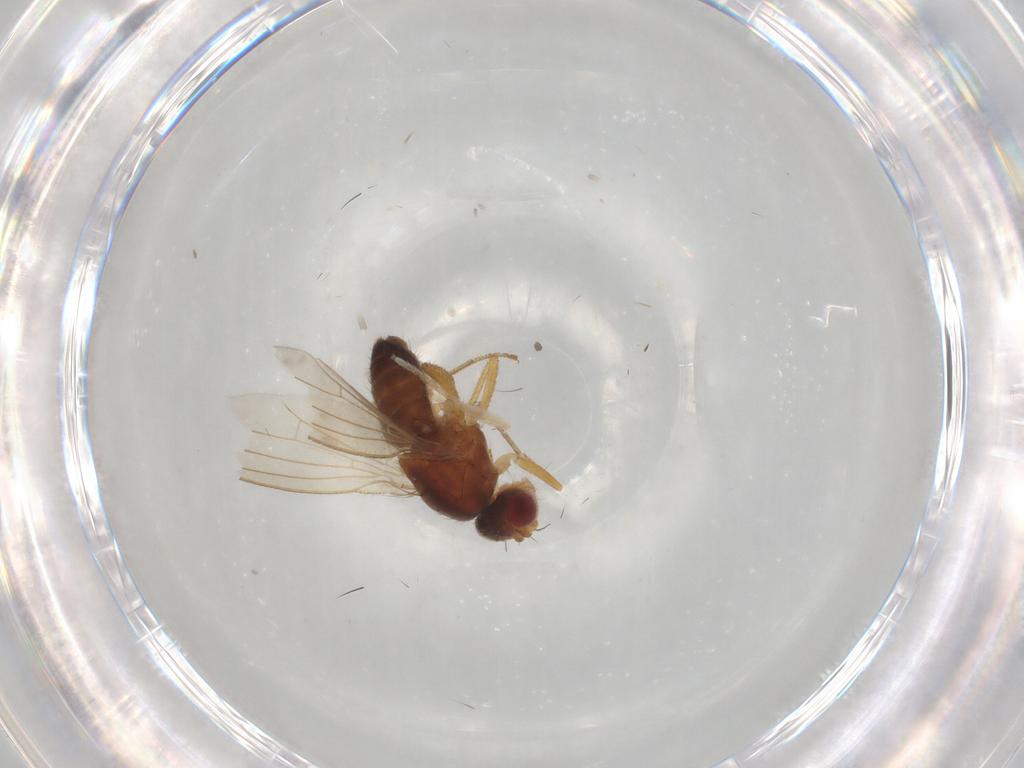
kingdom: Animalia
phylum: Arthropoda
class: Insecta
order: Diptera
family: Drosophilidae
